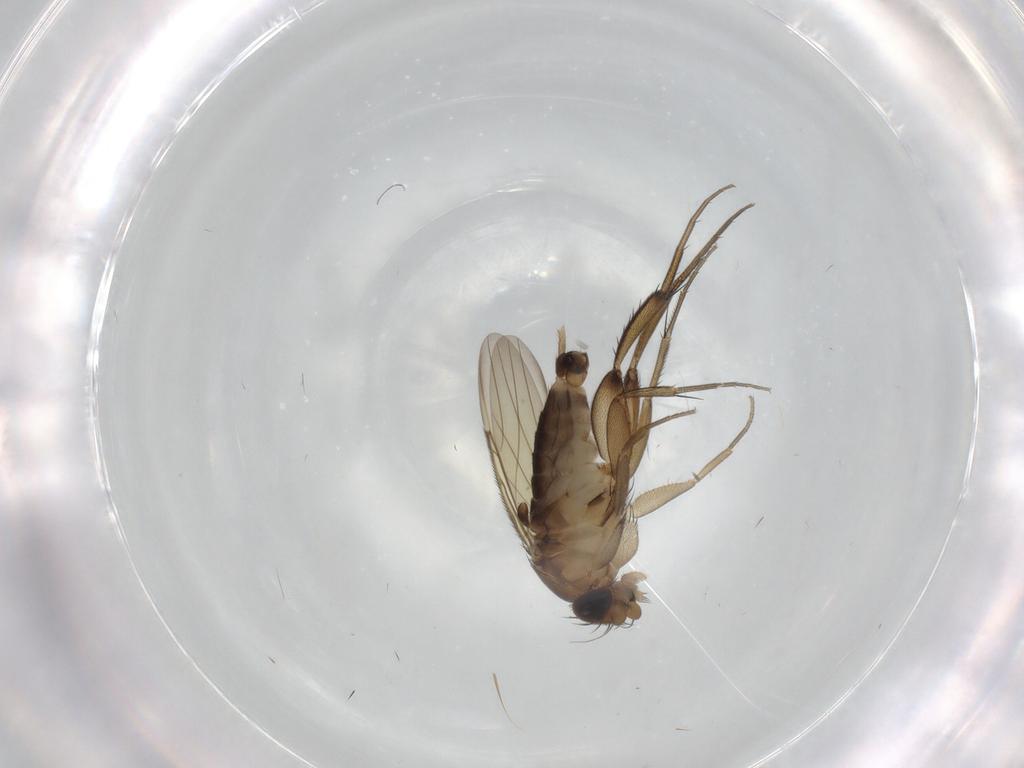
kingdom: Animalia
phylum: Arthropoda
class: Insecta
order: Diptera
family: Phoridae
